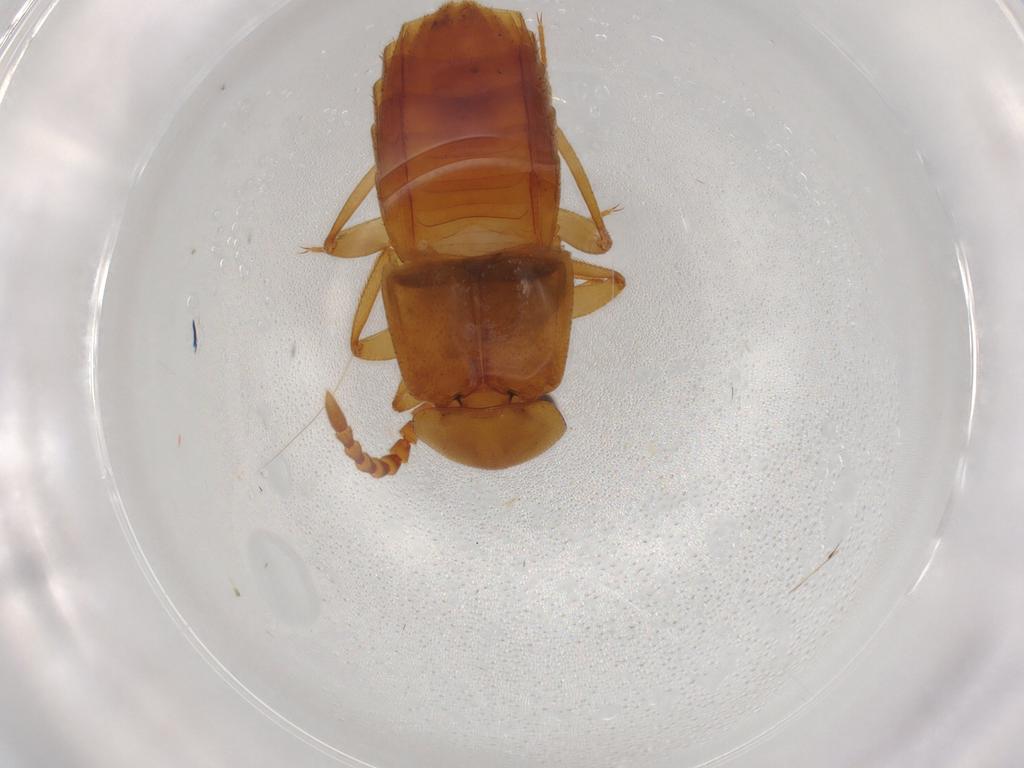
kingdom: Animalia
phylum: Arthropoda
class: Insecta
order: Coleoptera
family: Staphylinidae
